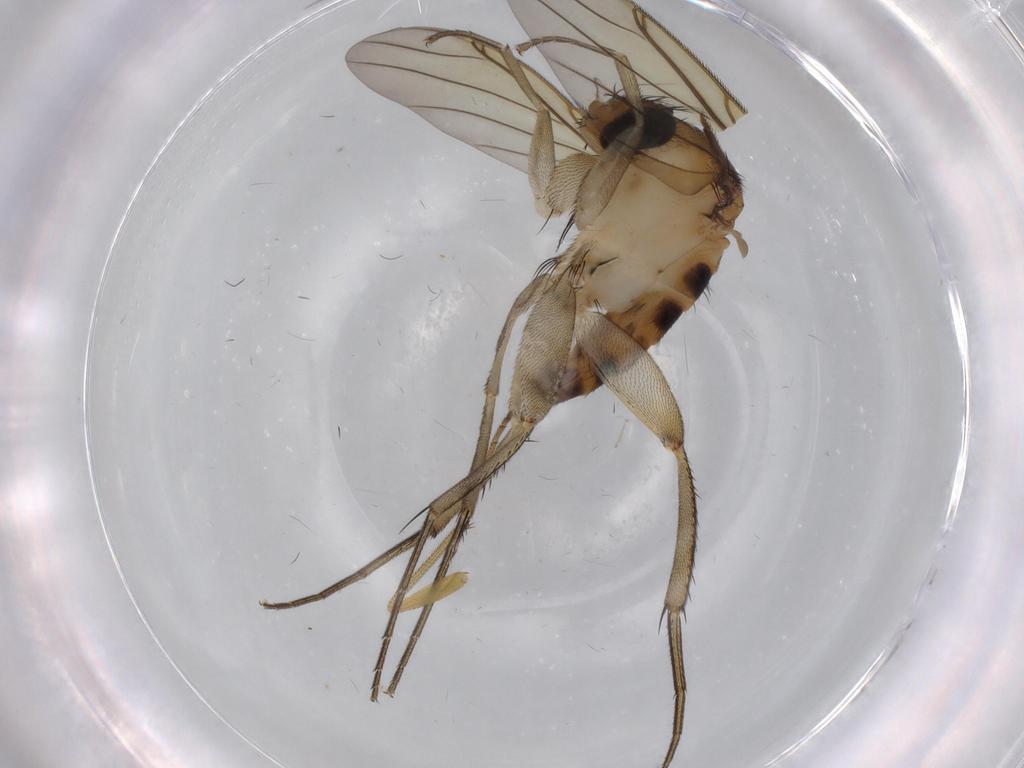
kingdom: Animalia
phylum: Arthropoda
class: Insecta
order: Diptera
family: Phoridae
